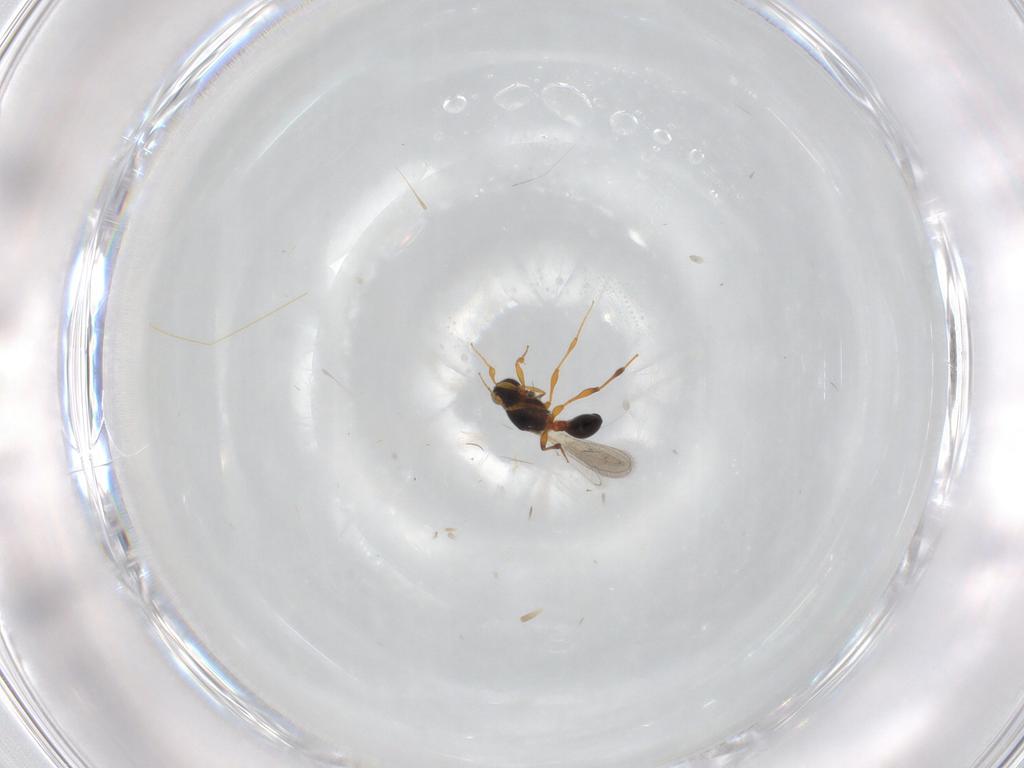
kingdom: Animalia
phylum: Arthropoda
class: Insecta
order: Hymenoptera
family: Platygastridae
